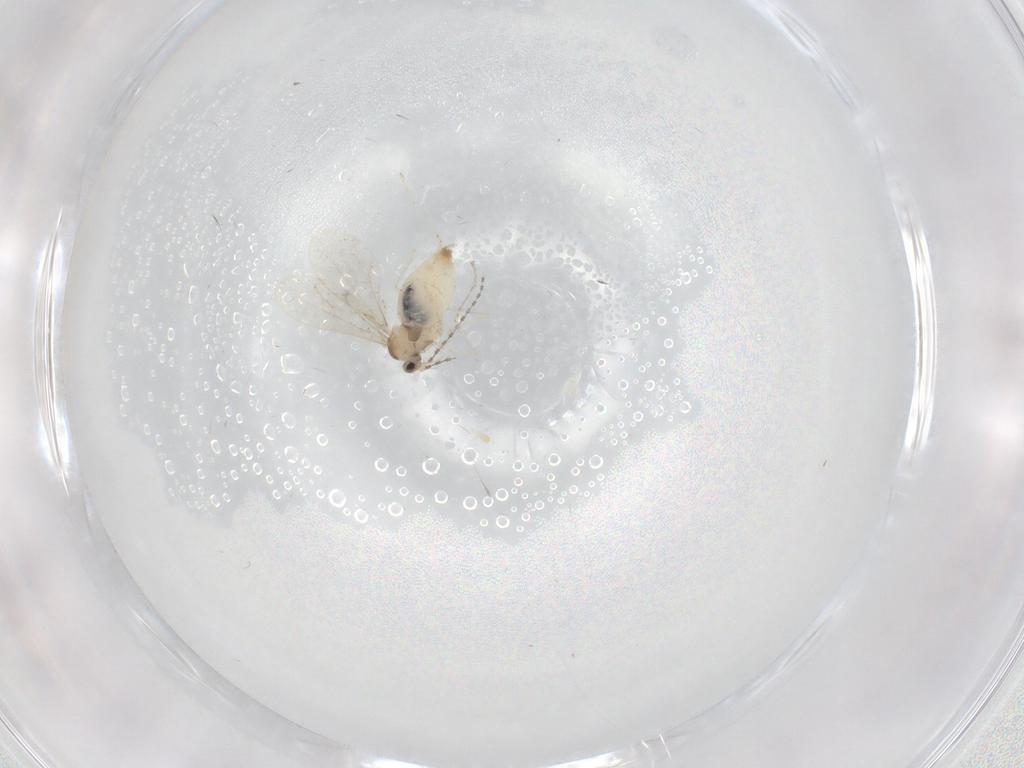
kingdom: Animalia
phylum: Arthropoda
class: Insecta
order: Diptera
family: Cecidomyiidae
